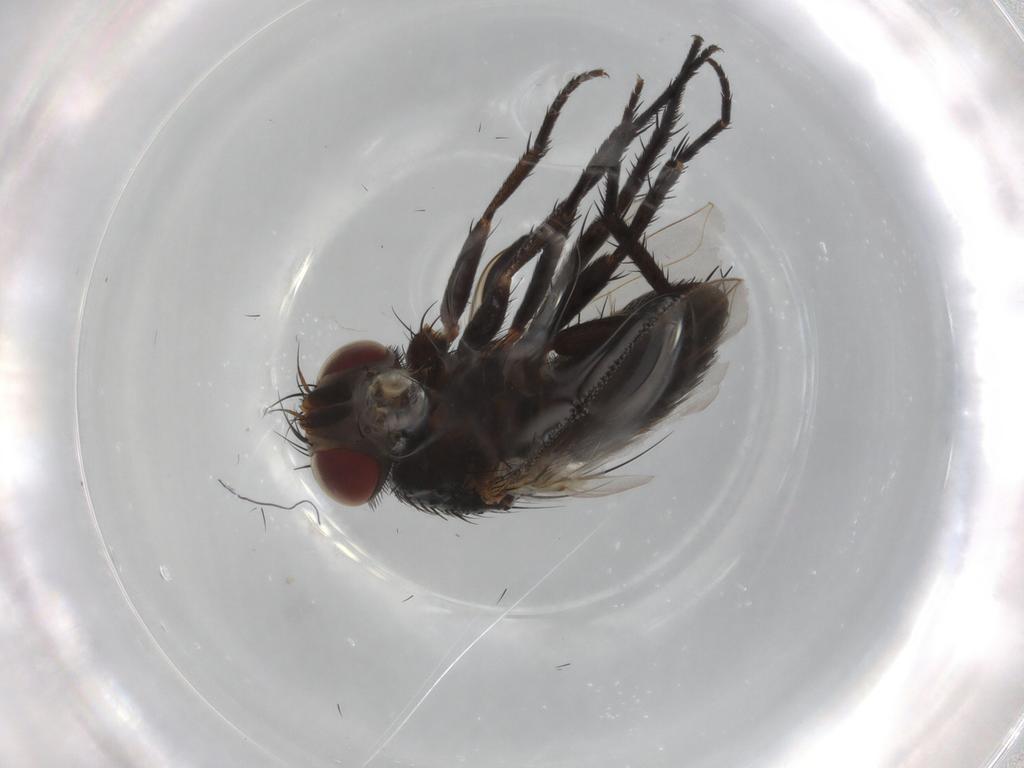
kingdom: Animalia
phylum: Arthropoda
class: Insecta
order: Diptera
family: Tachinidae
